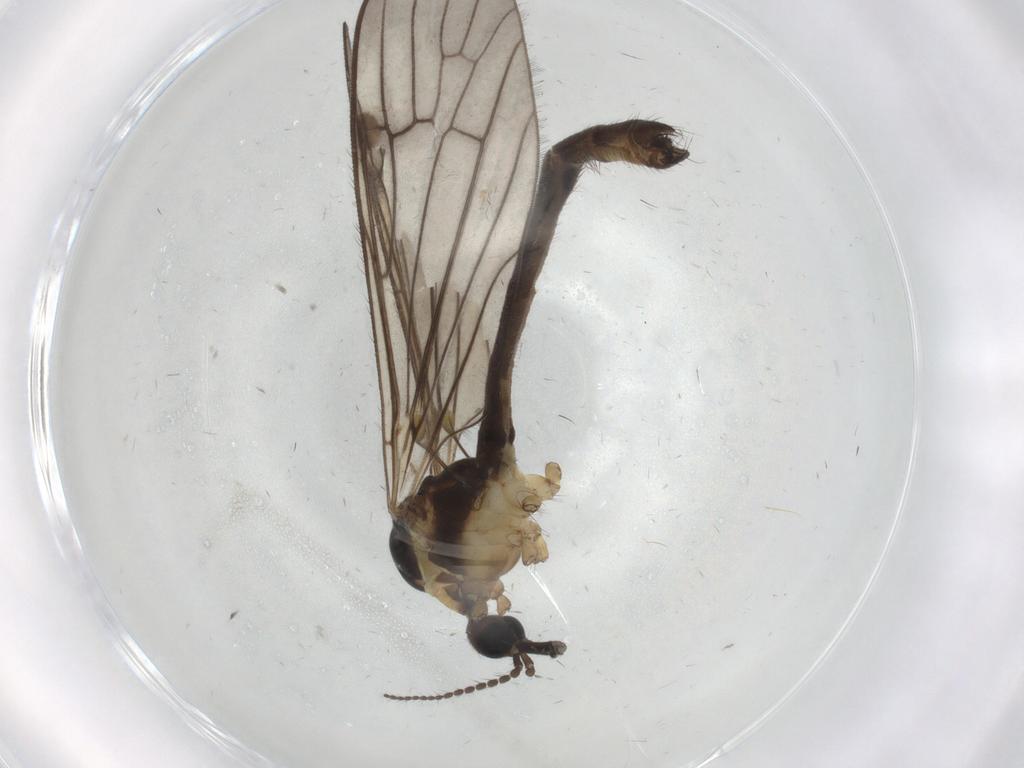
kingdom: Animalia
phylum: Arthropoda
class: Insecta
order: Diptera
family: Limoniidae
